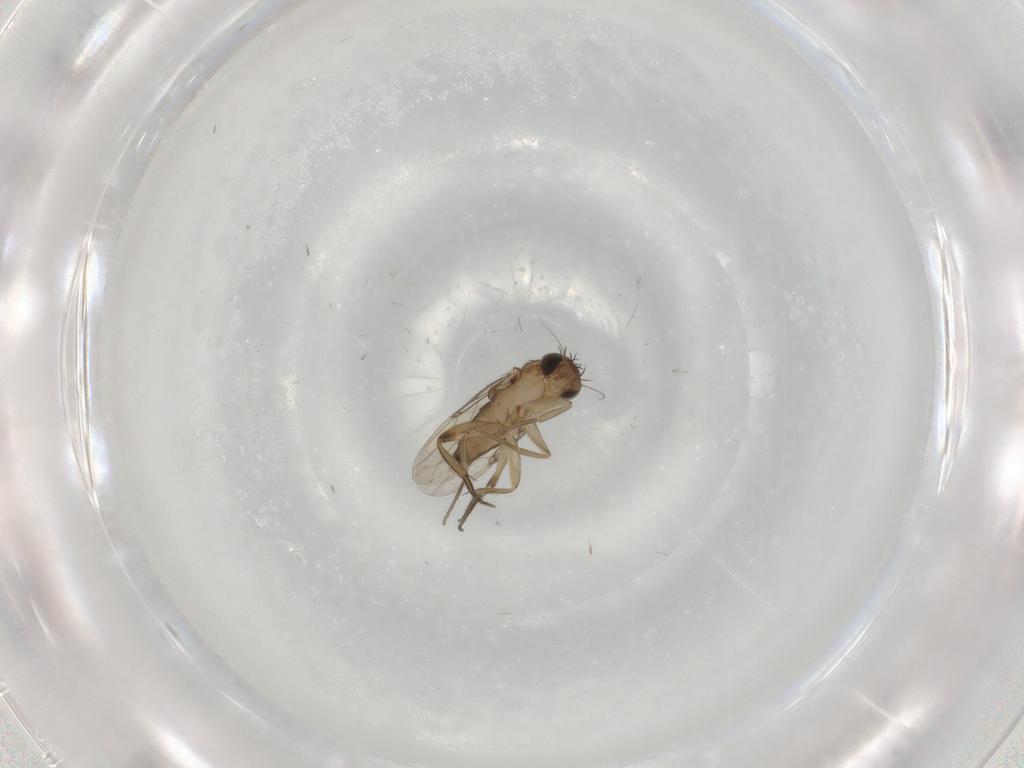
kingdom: Animalia
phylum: Arthropoda
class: Insecta
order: Diptera
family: Phoridae
